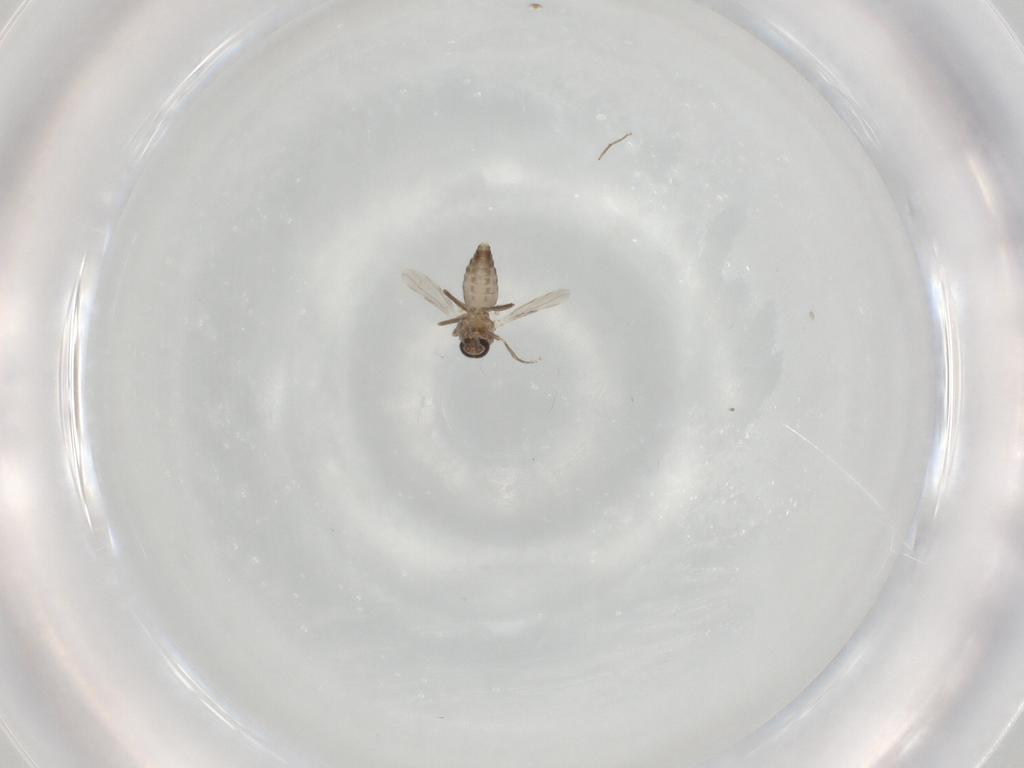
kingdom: Animalia
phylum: Arthropoda
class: Insecta
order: Diptera
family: Ceratopogonidae
